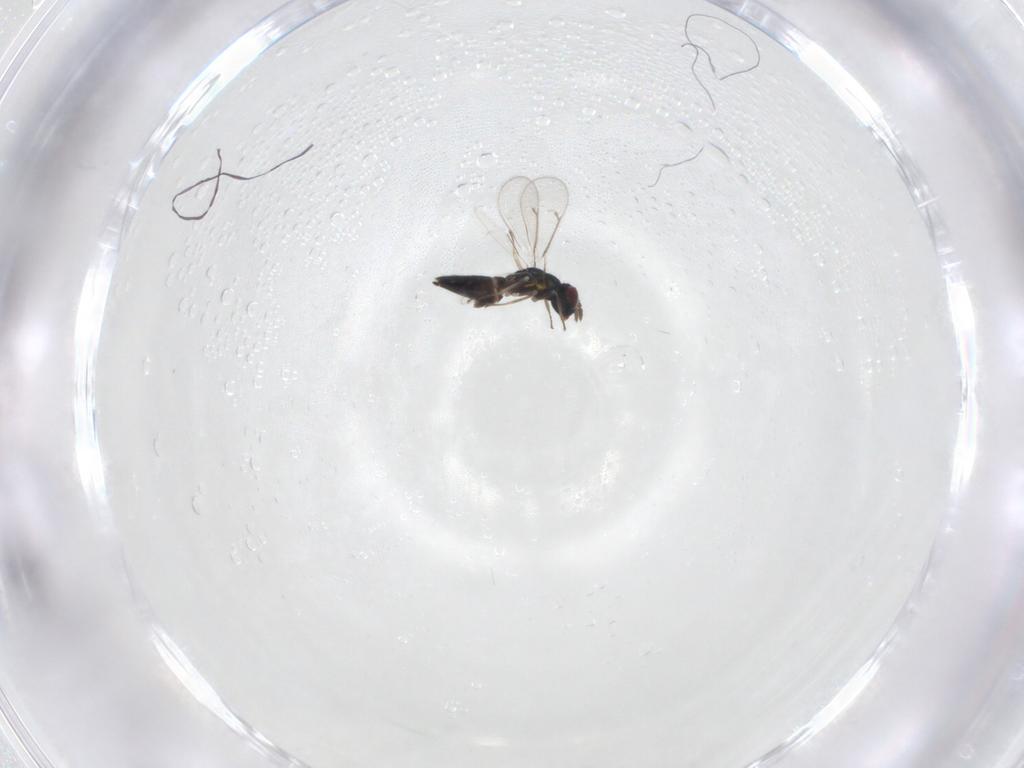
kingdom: Animalia
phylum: Arthropoda
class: Insecta
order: Hymenoptera
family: Eulophidae
